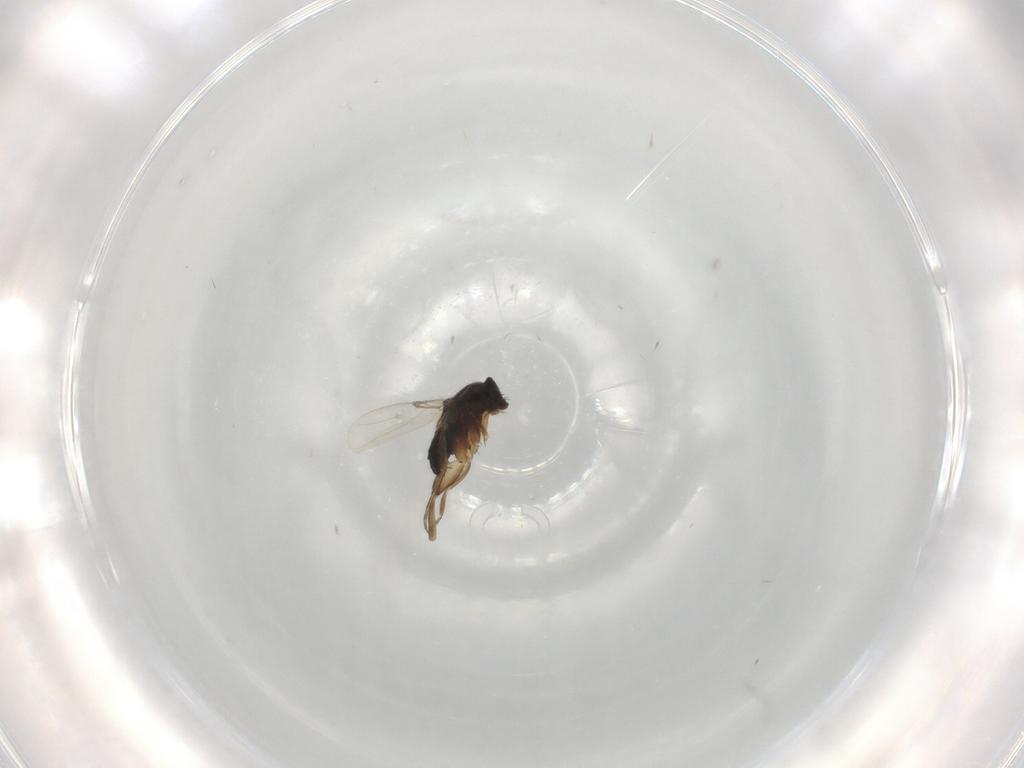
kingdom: Animalia
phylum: Arthropoda
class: Insecta
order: Diptera
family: Phoridae
